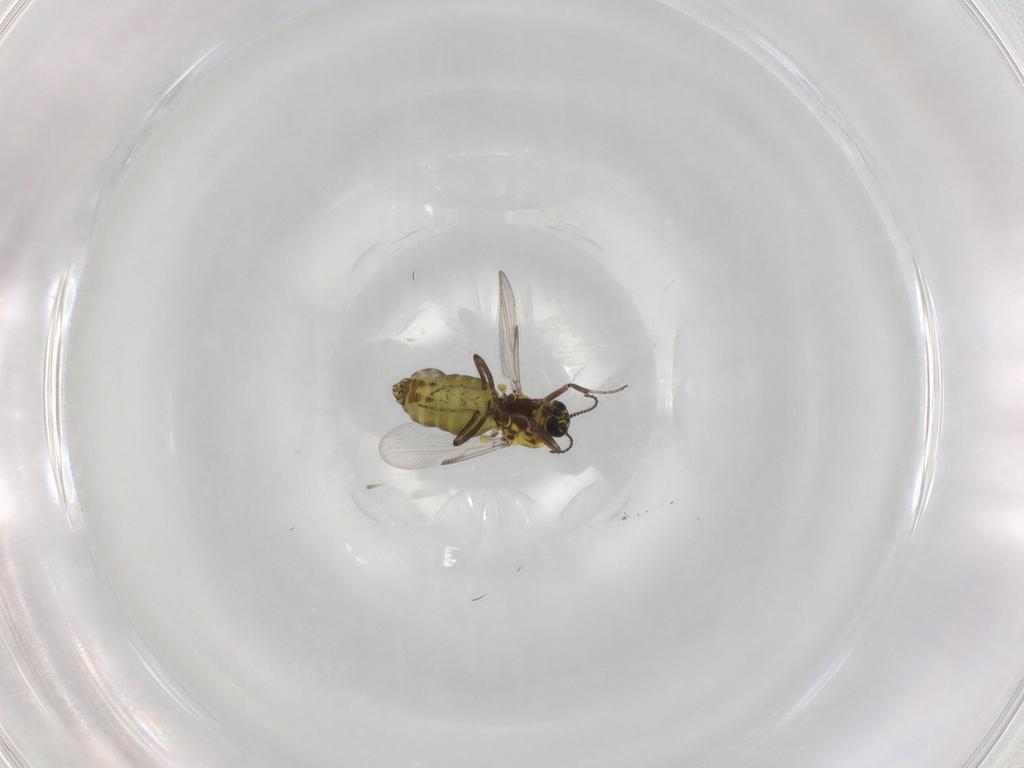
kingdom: Animalia
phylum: Arthropoda
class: Insecta
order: Diptera
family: Ceratopogonidae
